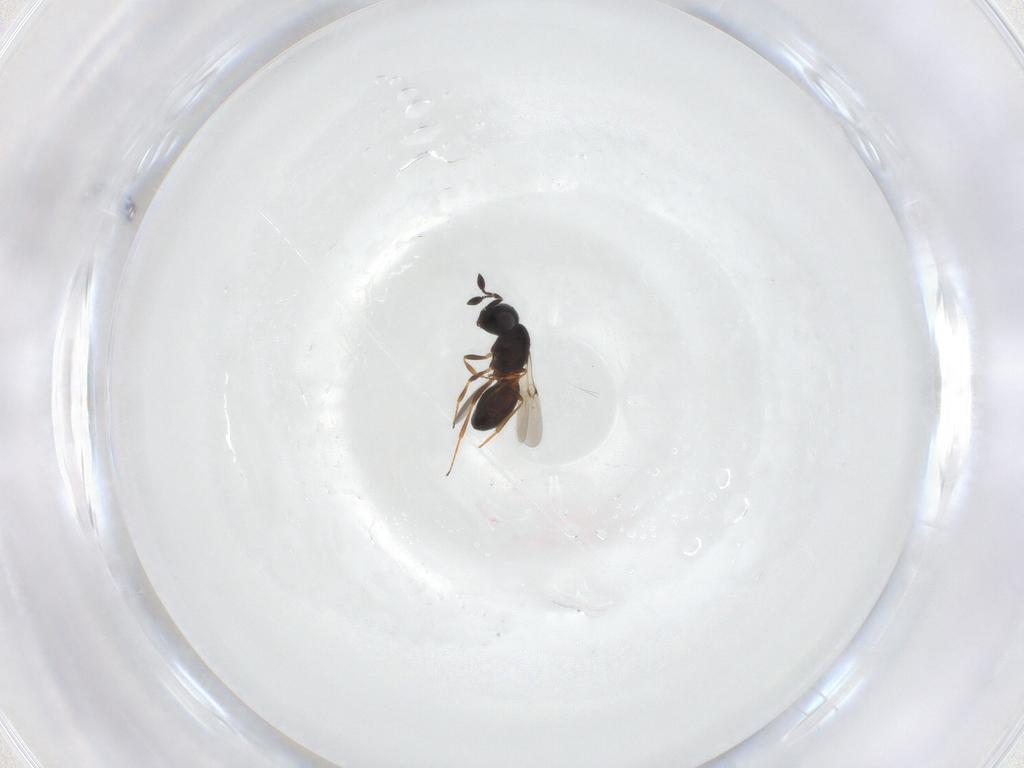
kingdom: Animalia
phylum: Arthropoda
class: Insecta
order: Hymenoptera
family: Scelionidae
